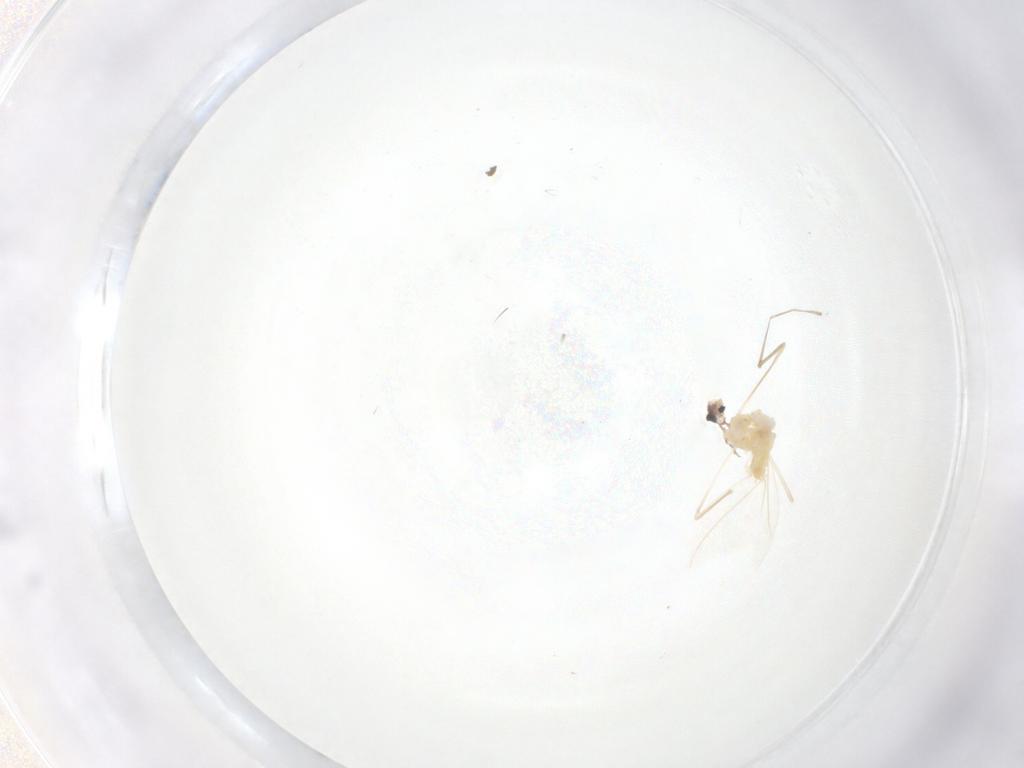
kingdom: Animalia
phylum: Arthropoda
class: Insecta
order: Diptera
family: Cecidomyiidae
